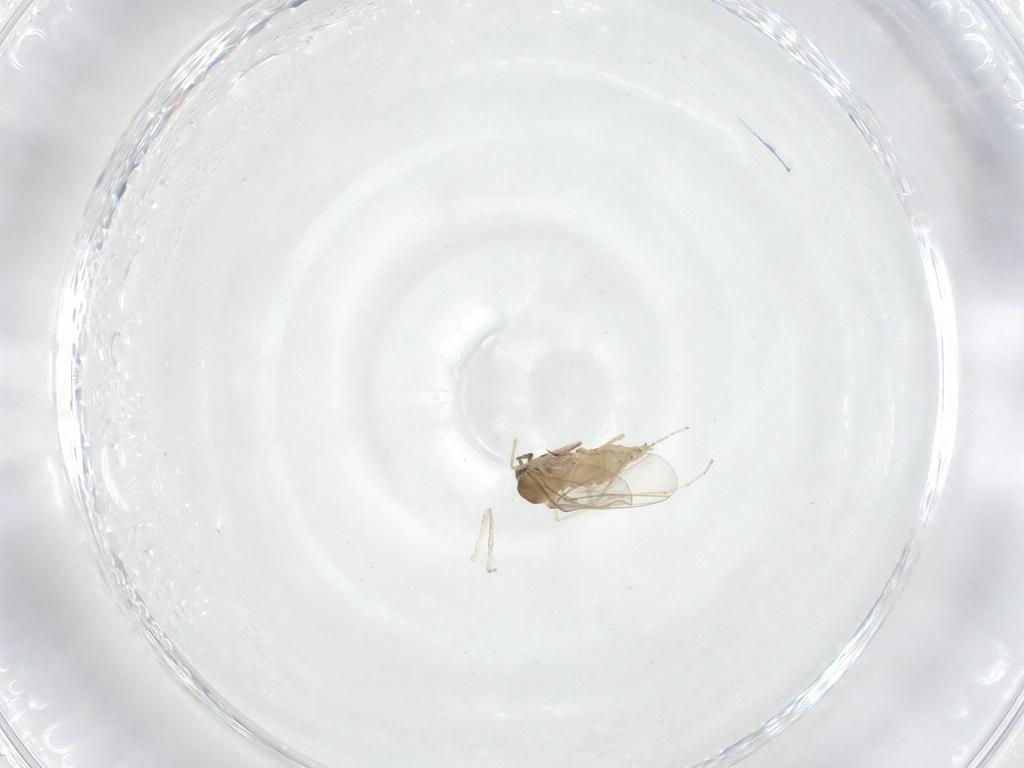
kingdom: Animalia
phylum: Arthropoda
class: Insecta
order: Diptera
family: Cecidomyiidae
